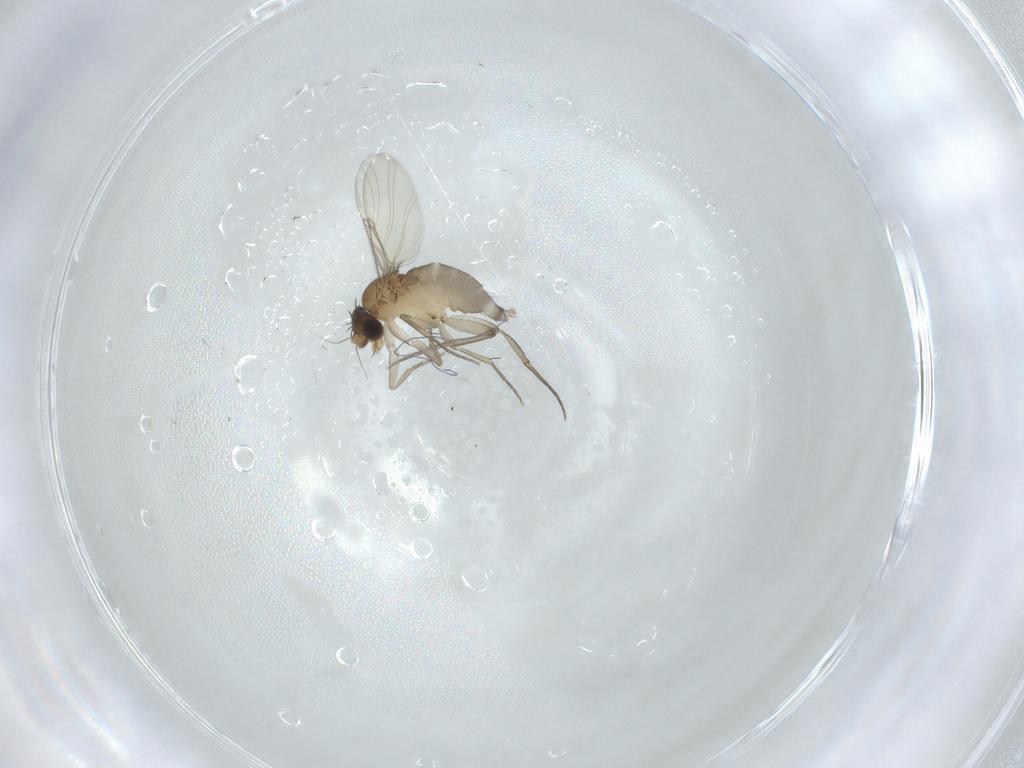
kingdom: Animalia
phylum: Arthropoda
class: Insecta
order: Diptera
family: Phoridae
